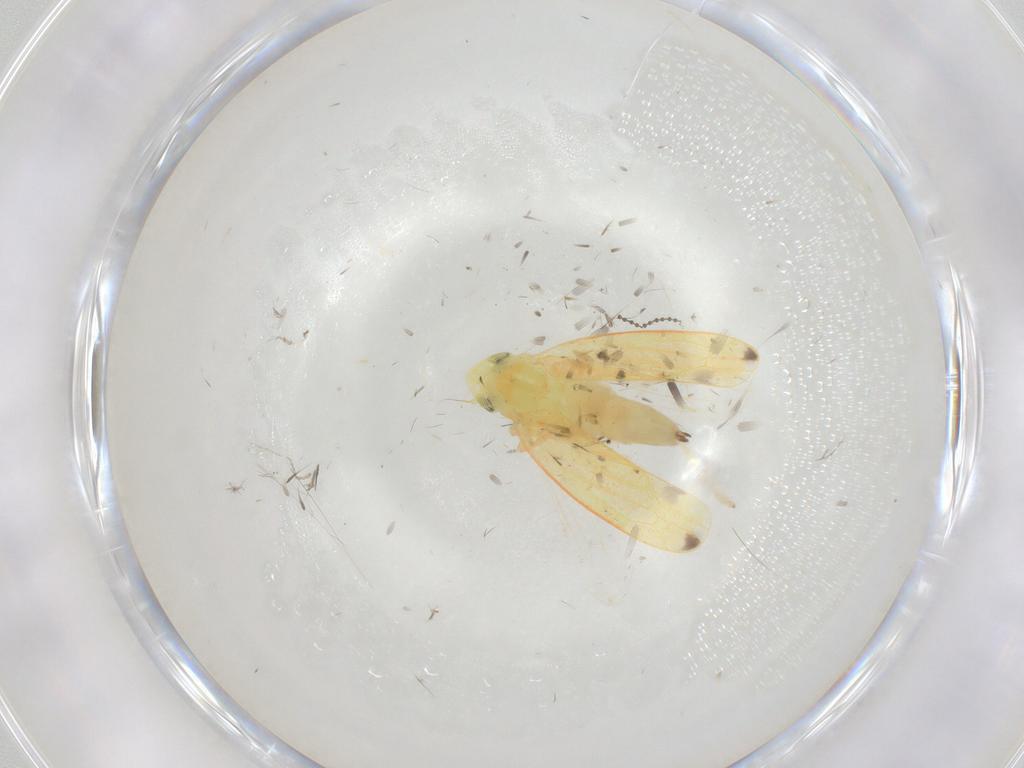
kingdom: Animalia
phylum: Arthropoda
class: Insecta
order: Hemiptera
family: Cicadellidae
